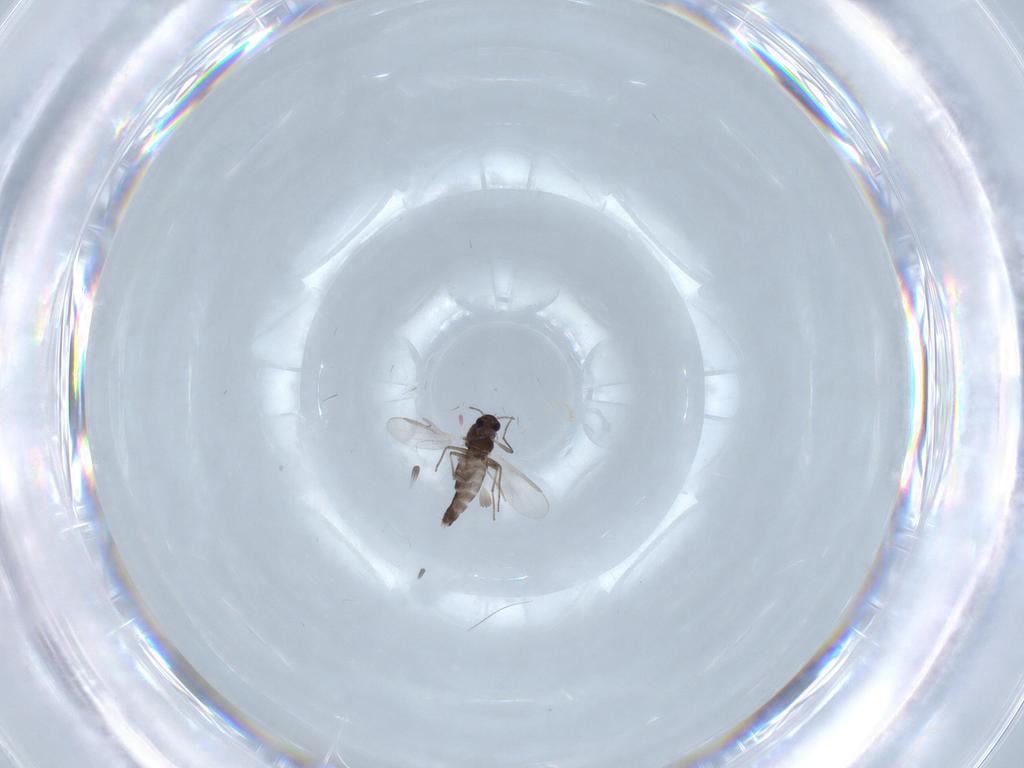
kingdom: Animalia
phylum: Arthropoda
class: Insecta
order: Diptera
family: Chironomidae
